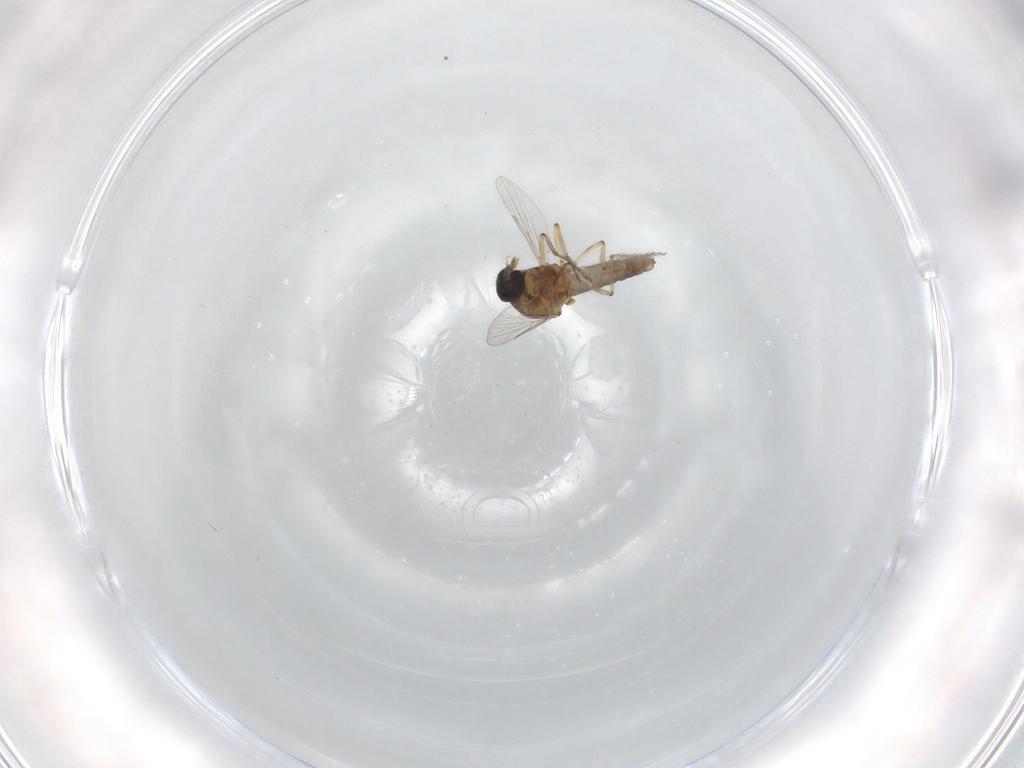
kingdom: Animalia
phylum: Arthropoda
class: Insecta
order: Diptera
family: Ceratopogonidae
